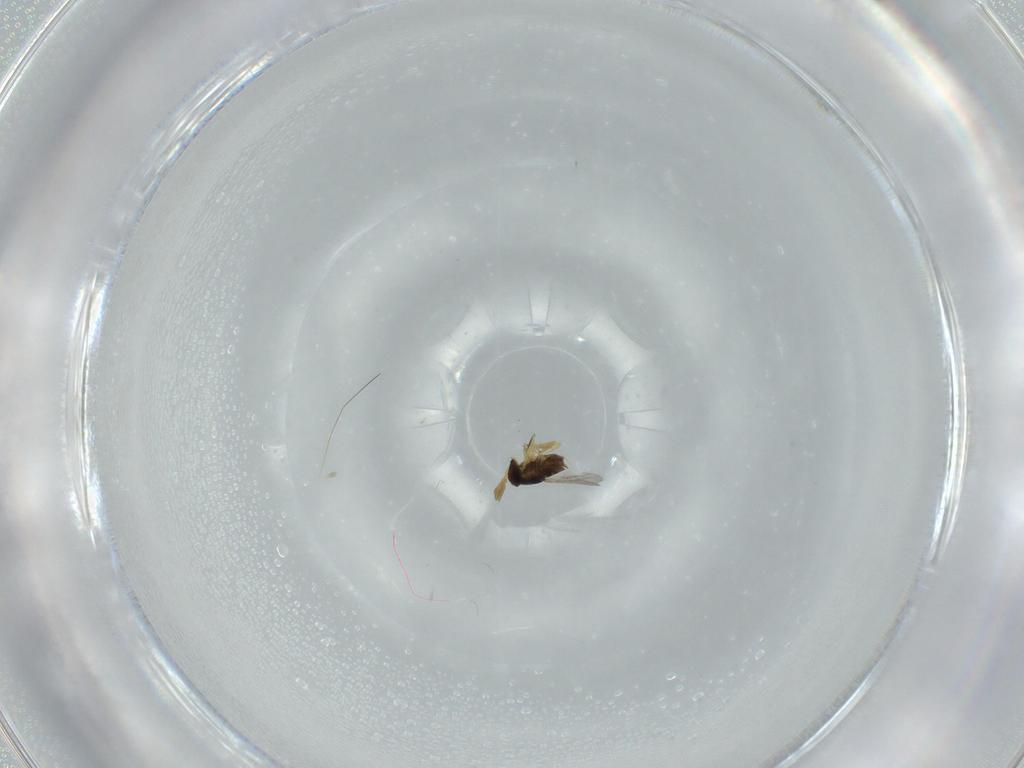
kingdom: Animalia
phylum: Arthropoda
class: Insecta
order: Hymenoptera
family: Encyrtidae
